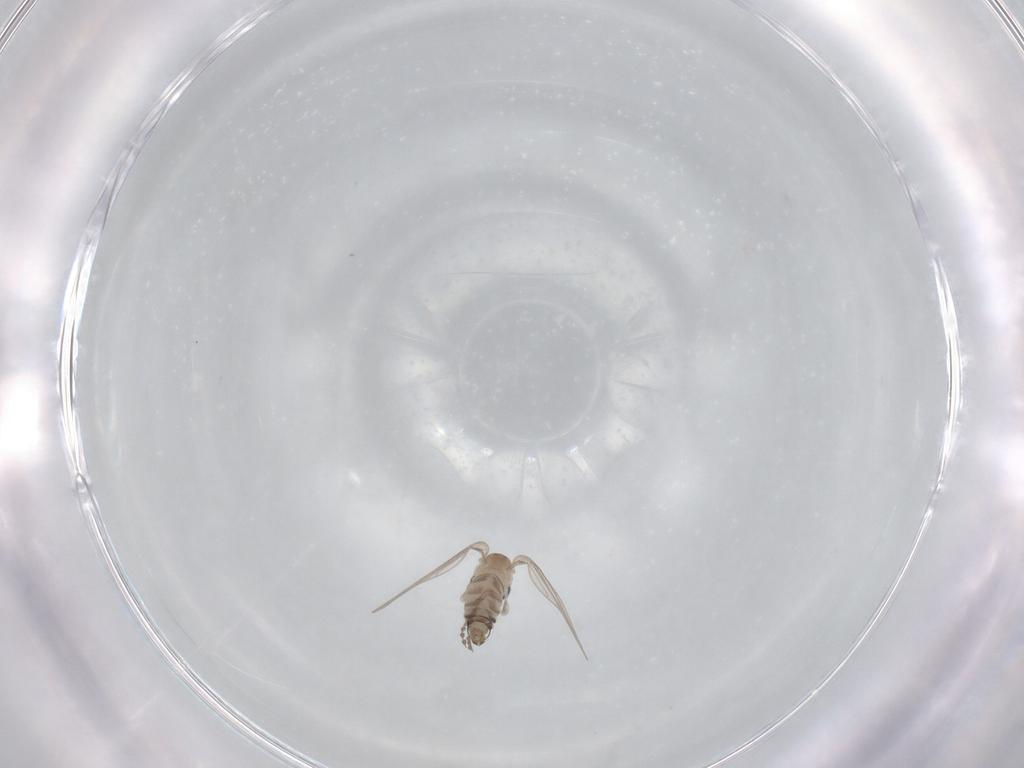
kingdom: Animalia
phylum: Arthropoda
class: Insecta
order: Diptera
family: Psychodidae
